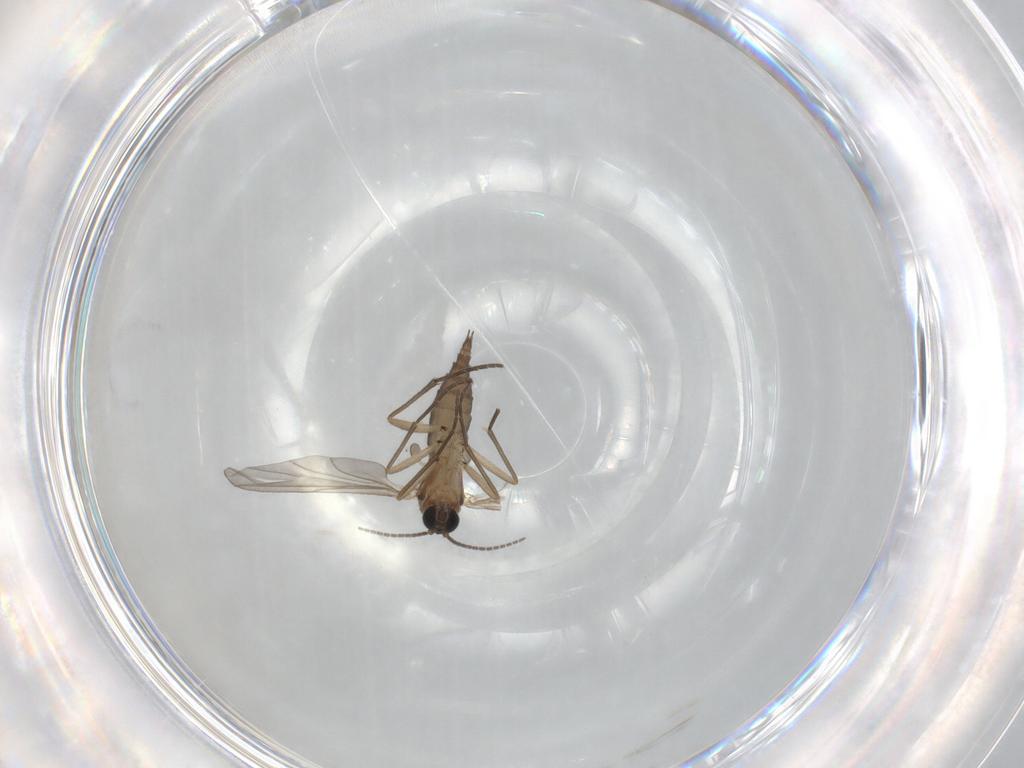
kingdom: Animalia
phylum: Arthropoda
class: Insecta
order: Diptera
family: Sciaridae
